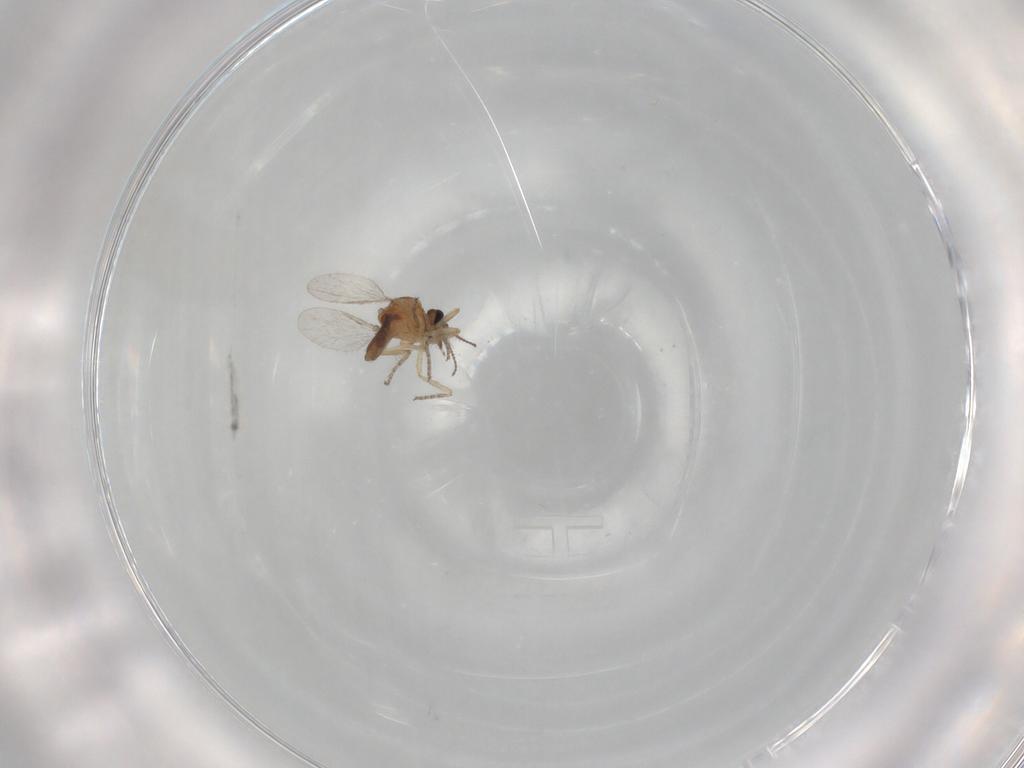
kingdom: Animalia
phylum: Arthropoda
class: Insecta
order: Diptera
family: Ceratopogonidae
